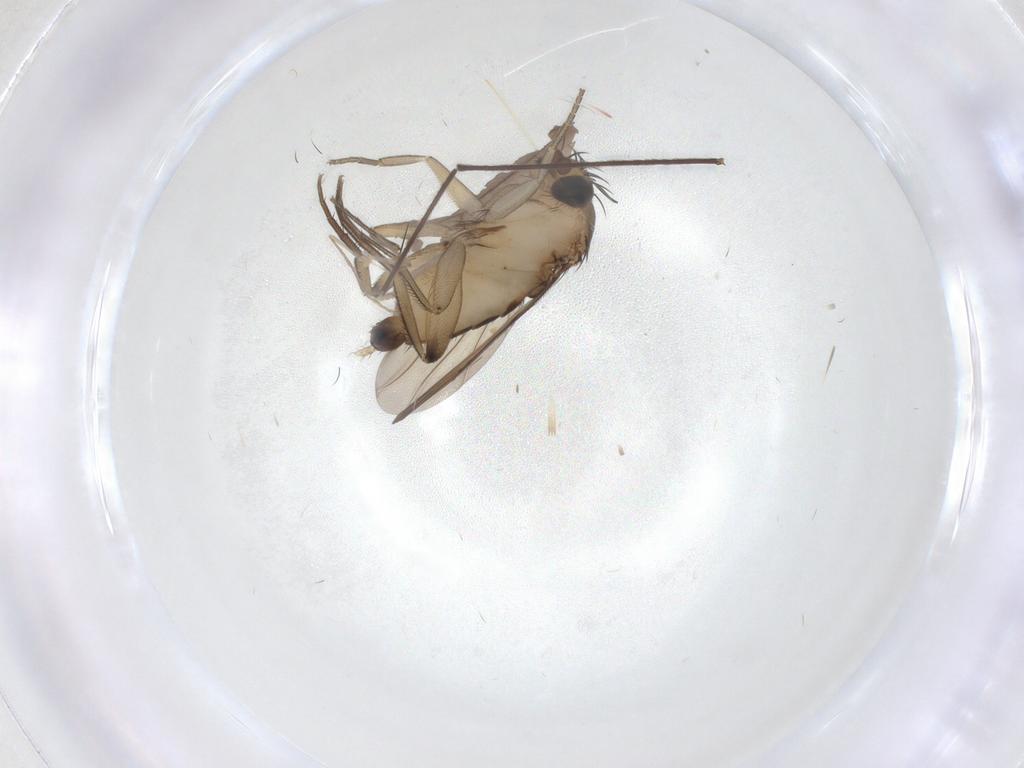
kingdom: Animalia
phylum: Arthropoda
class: Insecta
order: Diptera
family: Phoridae
